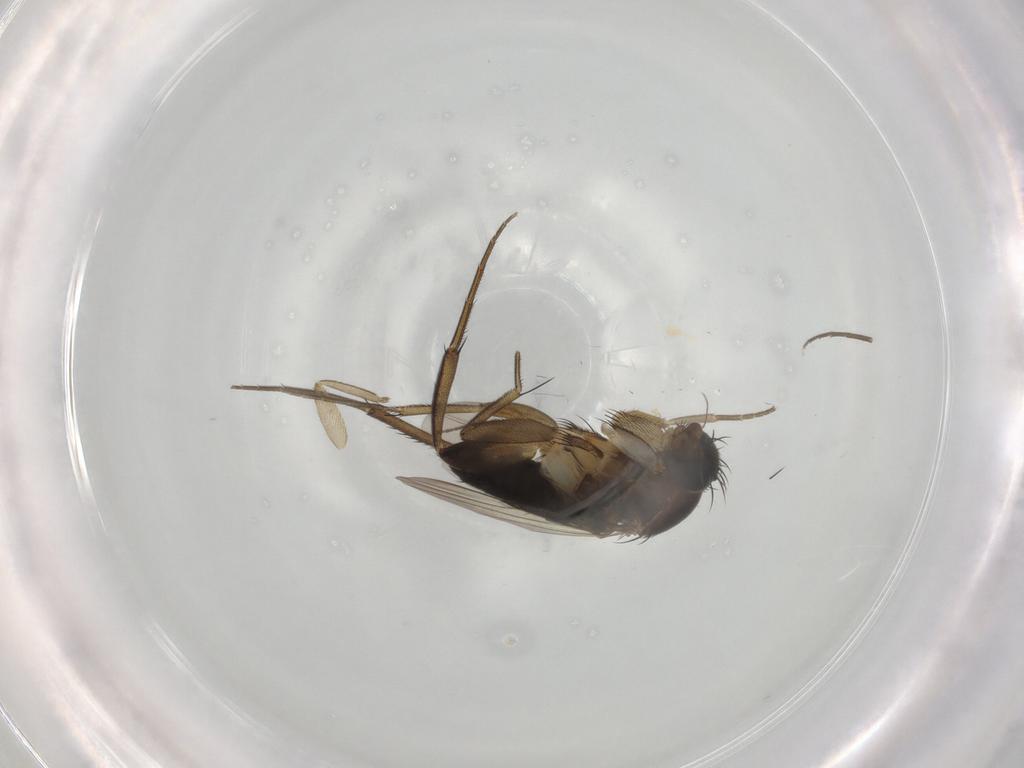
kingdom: Animalia
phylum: Arthropoda
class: Insecta
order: Diptera
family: Phoridae
